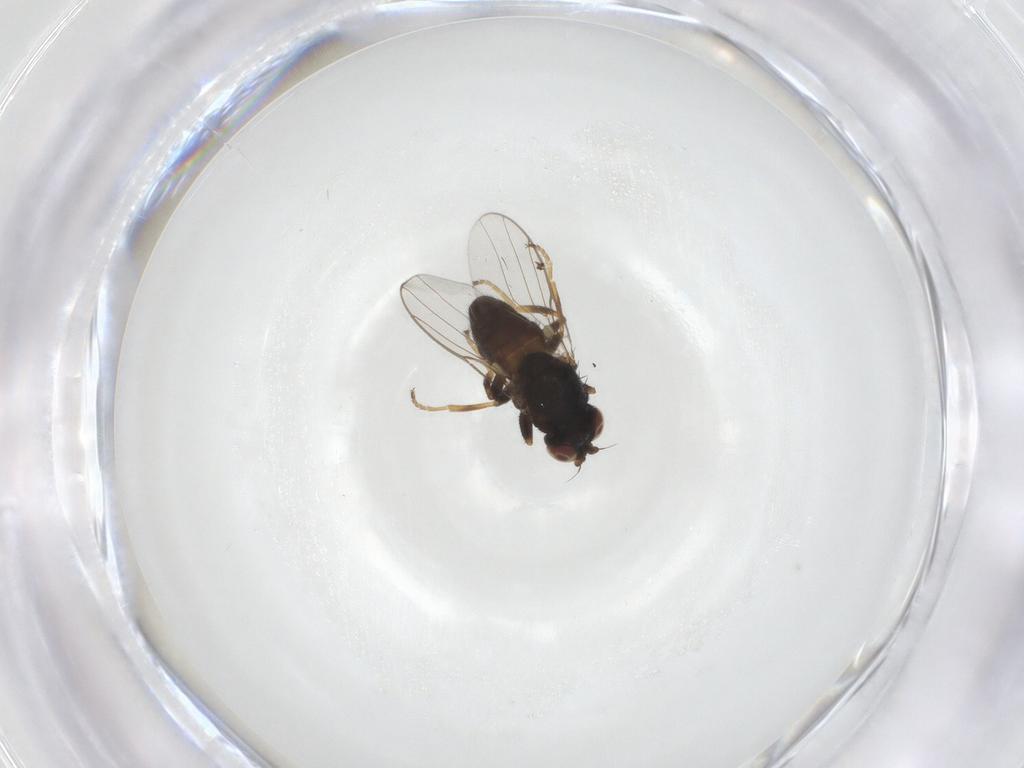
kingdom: Animalia
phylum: Arthropoda
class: Insecta
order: Diptera
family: Chloropidae
